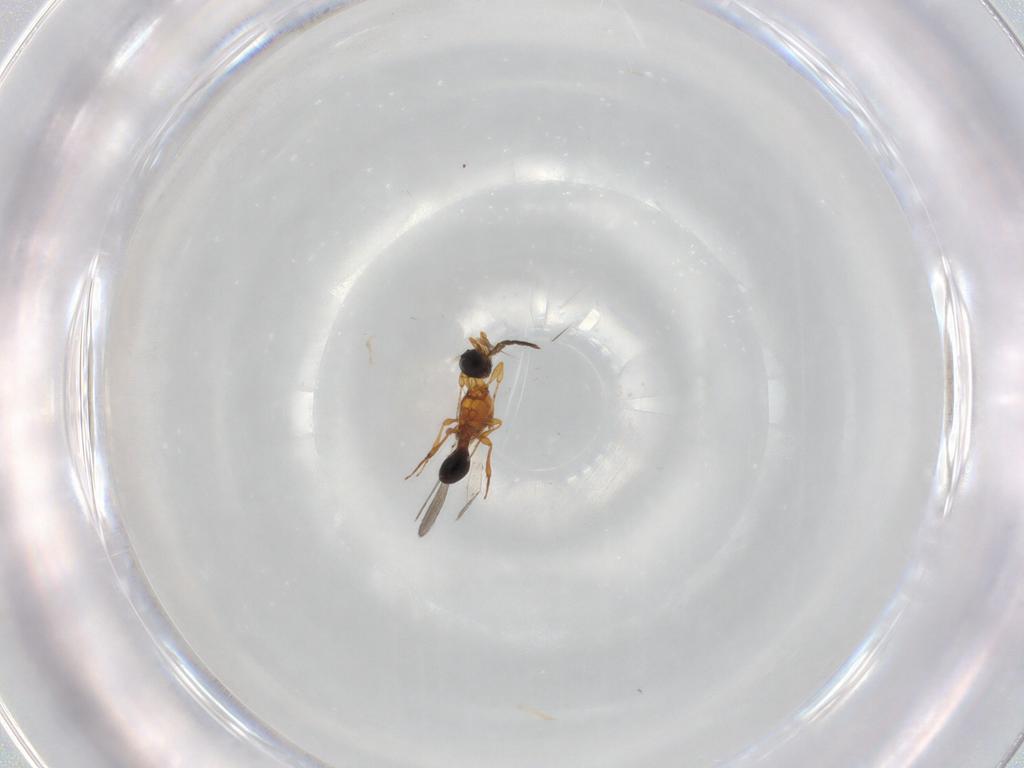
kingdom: Animalia
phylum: Arthropoda
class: Insecta
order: Hymenoptera
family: Platygastridae
